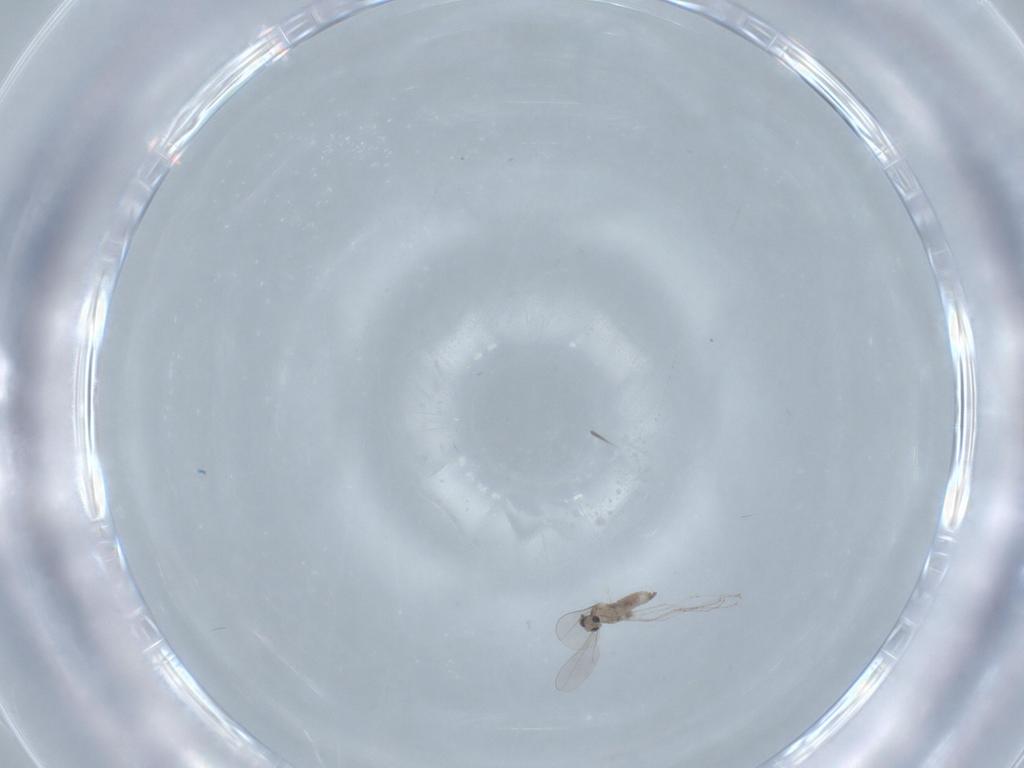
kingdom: Animalia
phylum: Arthropoda
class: Insecta
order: Diptera
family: Cecidomyiidae
